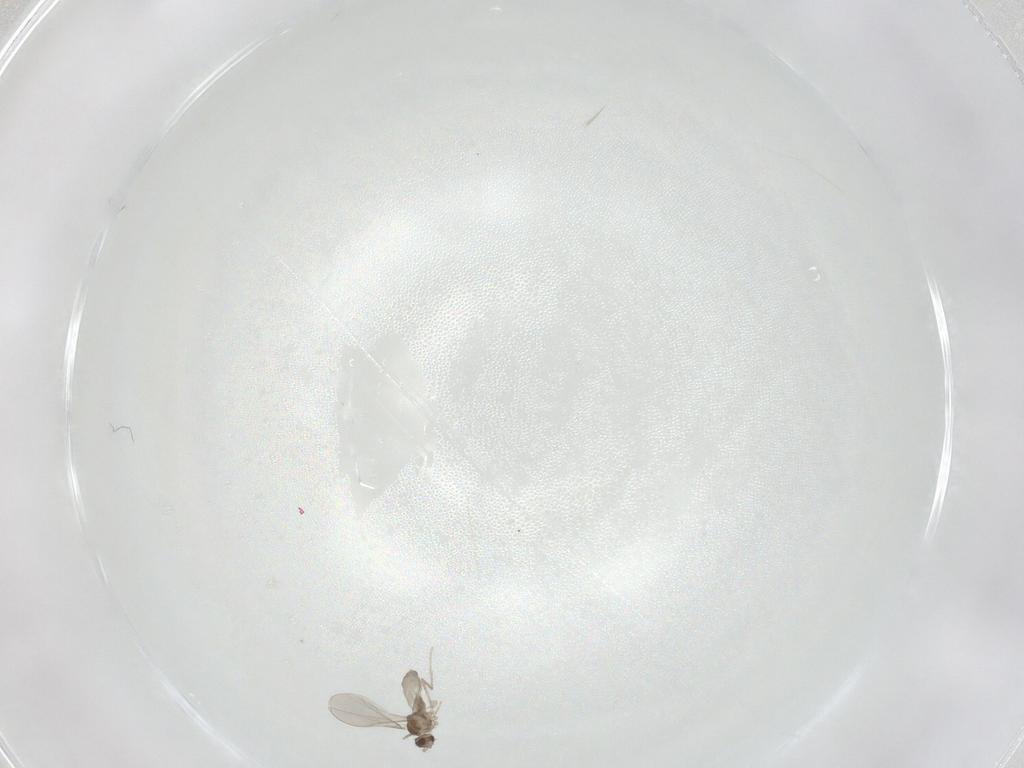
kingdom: Animalia
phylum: Arthropoda
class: Insecta
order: Diptera
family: Cecidomyiidae
